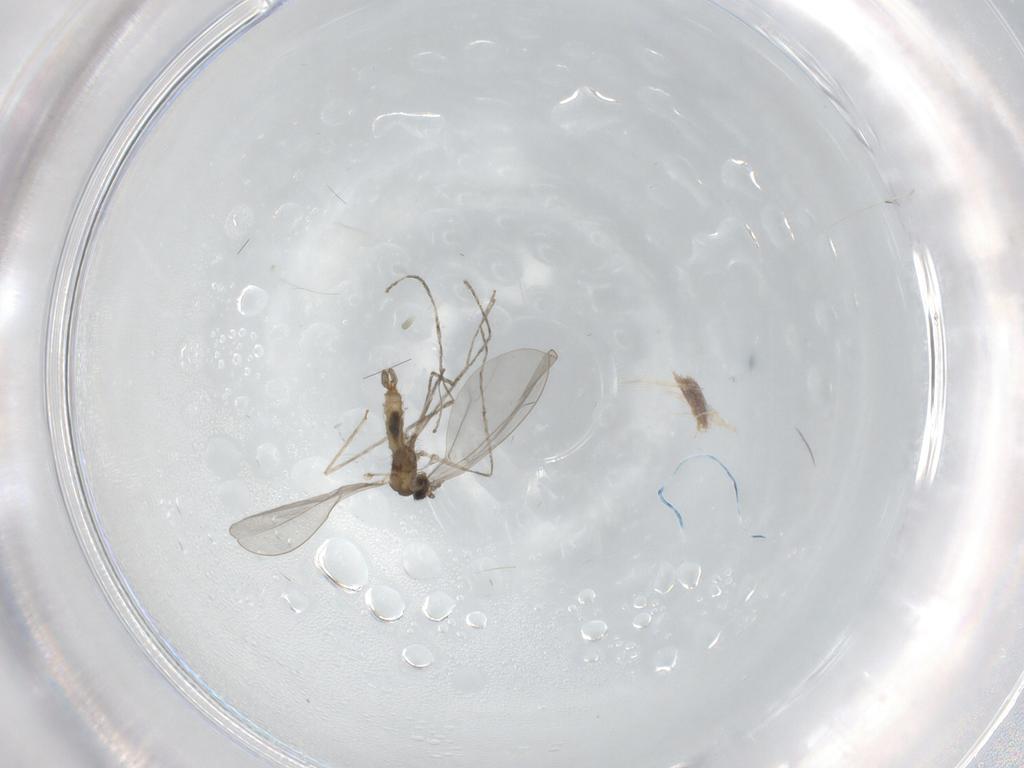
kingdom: Animalia
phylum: Arthropoda
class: Insecta
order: Diptera
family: Cecidomyiidae
